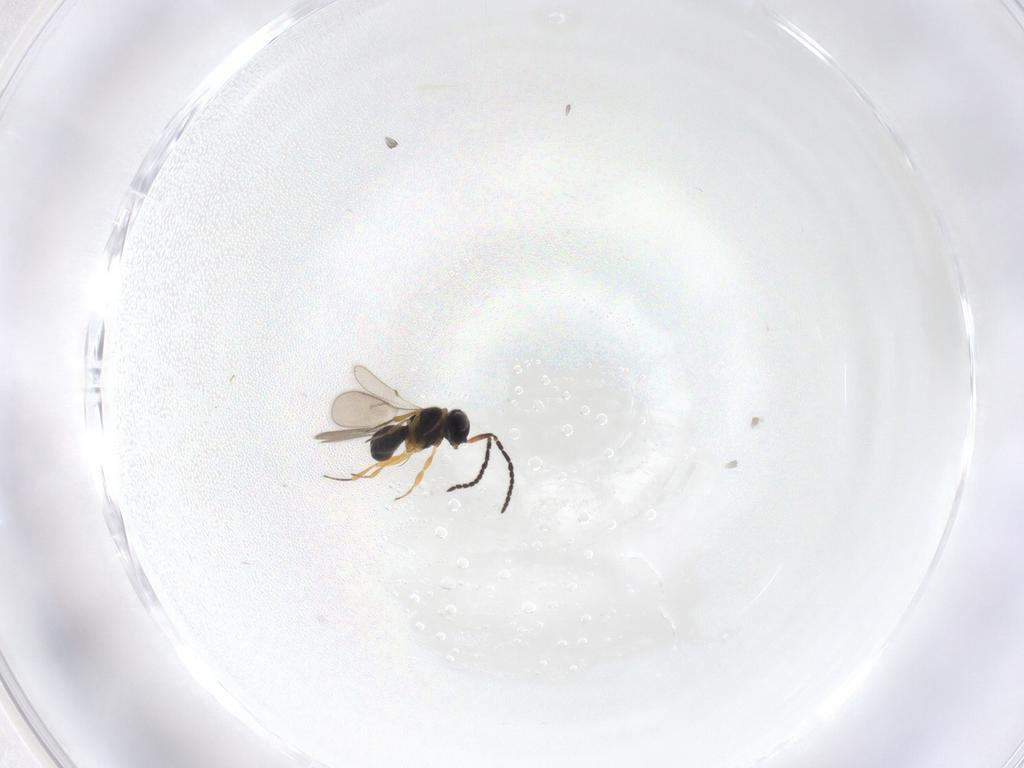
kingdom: Animalia
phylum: Arthropoda
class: Insecta
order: Hymenoptera
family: Scelionidae
